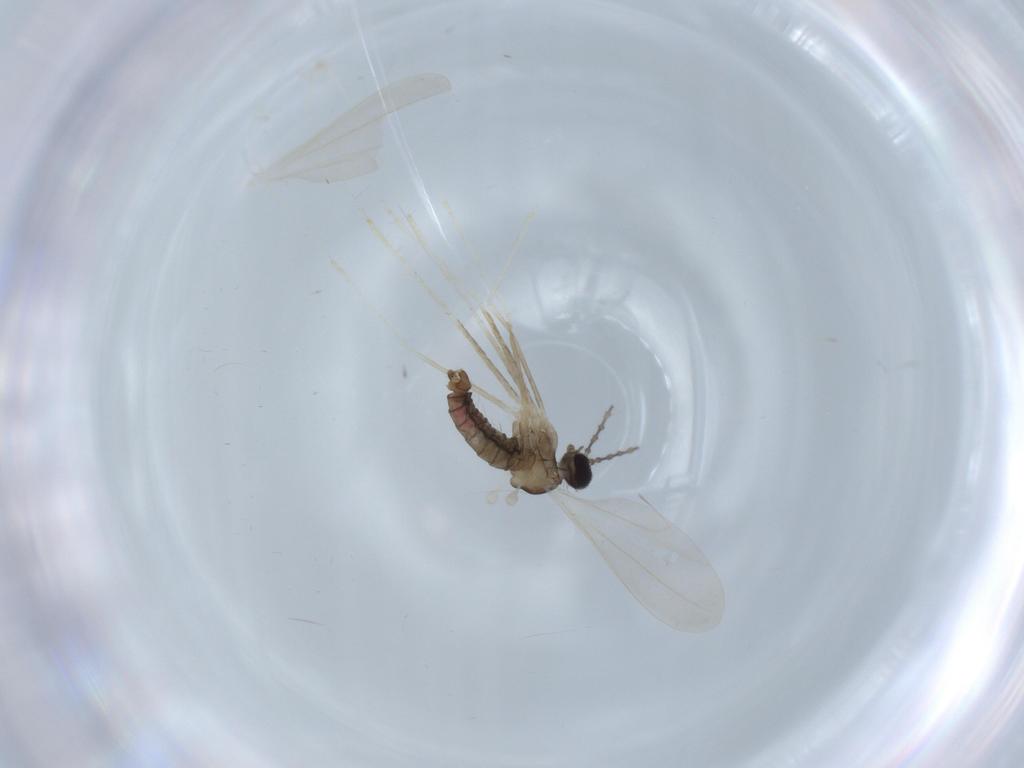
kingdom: Animalia
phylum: Arthropoda
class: Insecta
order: Diptera
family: Cecidomyiidae
